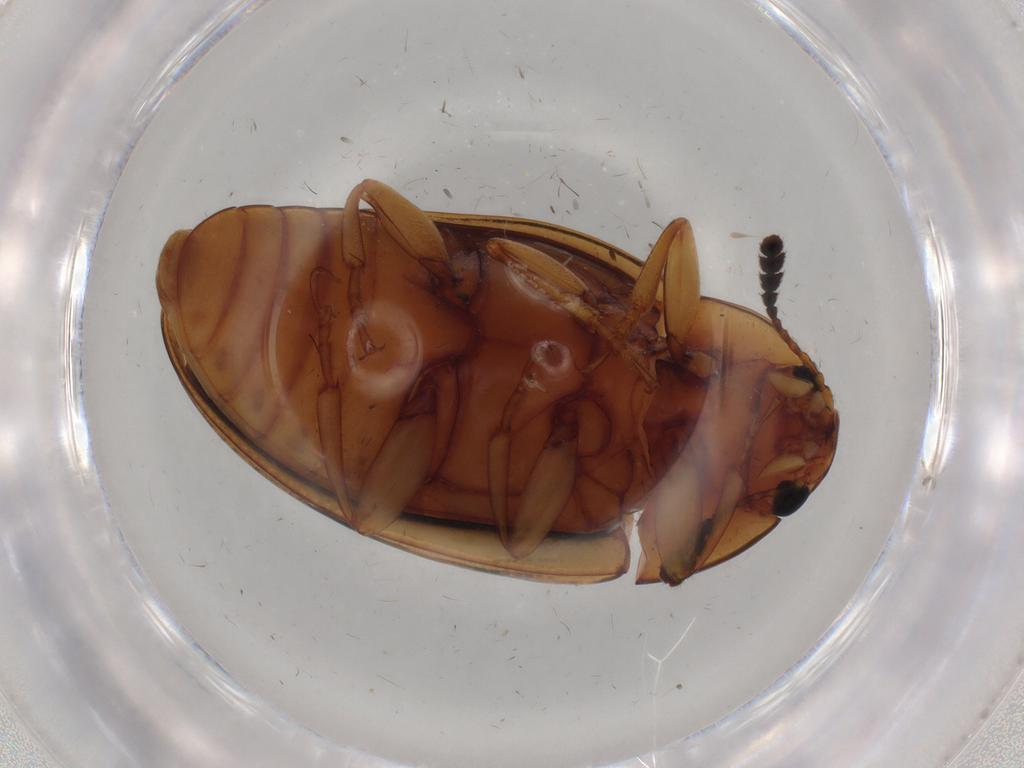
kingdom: Animalia
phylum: Arthropoda
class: Insecta
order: Coleoptera
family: Erotylidae
